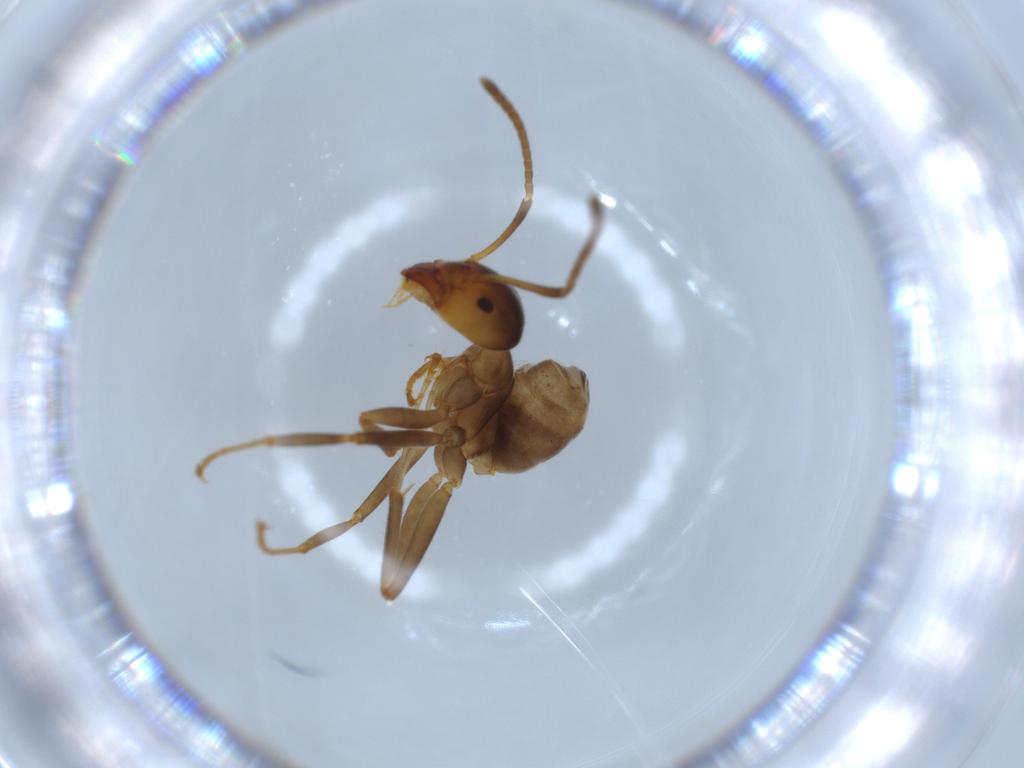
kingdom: Animalia
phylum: Arthropoda
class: Insecta
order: Hymenoptera
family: Formicidae
